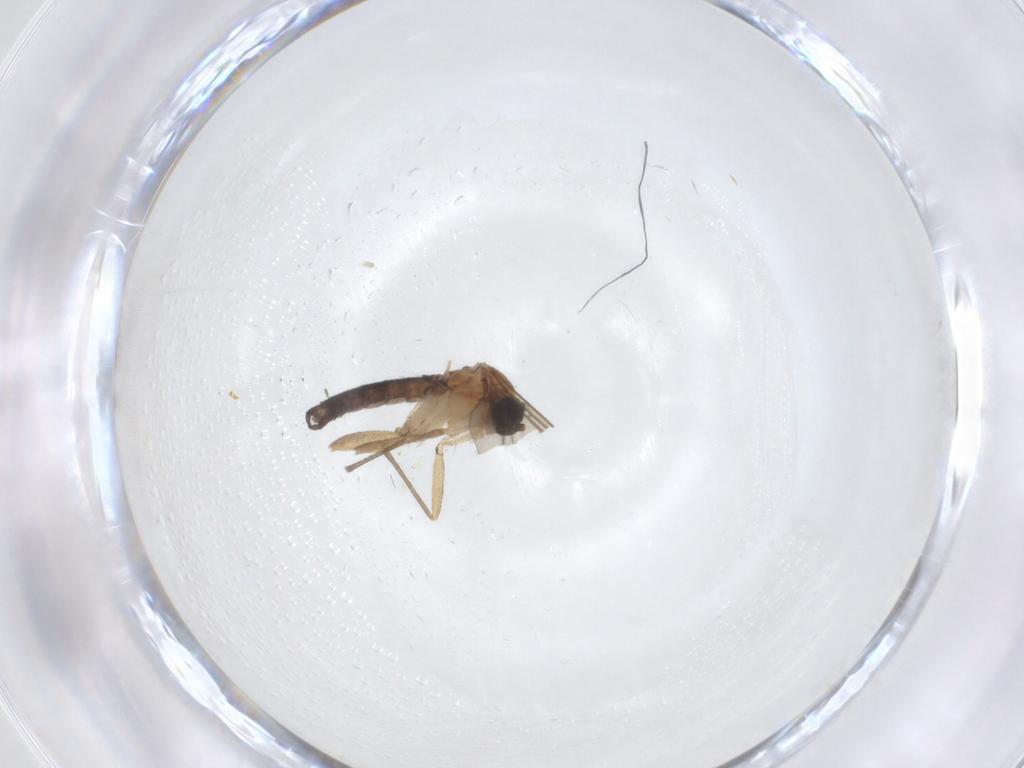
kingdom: Animalia
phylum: Arthropoda
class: Insecta
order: Diptera
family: Chironomidae
